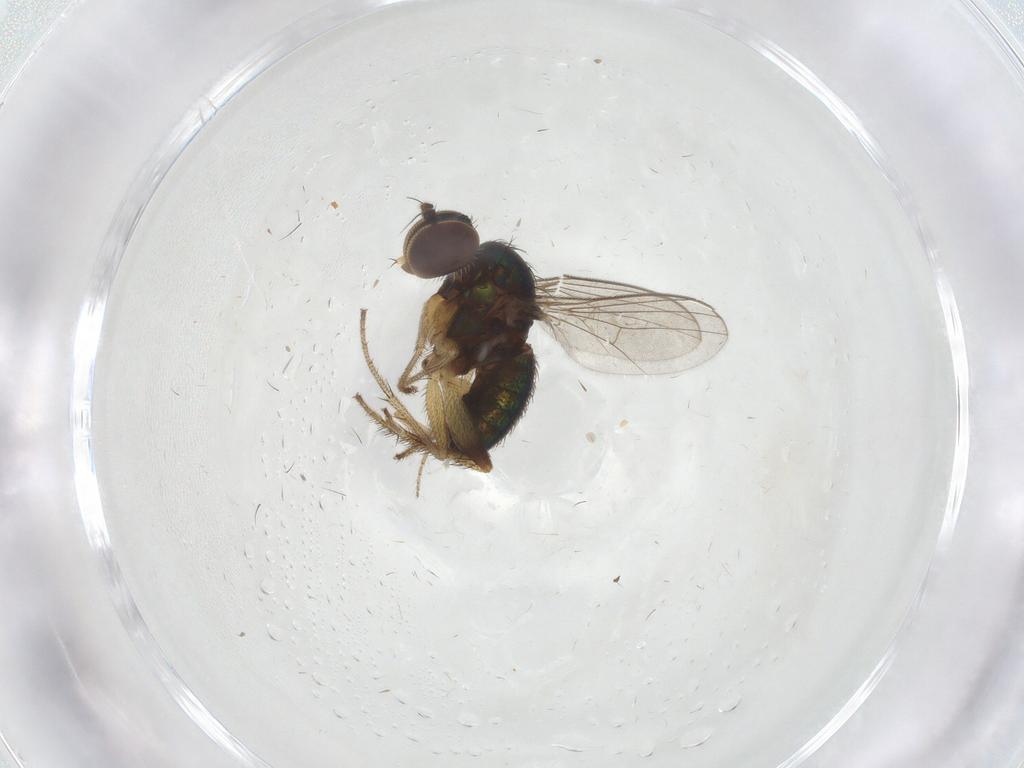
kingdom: Animalia
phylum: Arthropoda
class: Insecta
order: Diptera
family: Dolichopodidae
